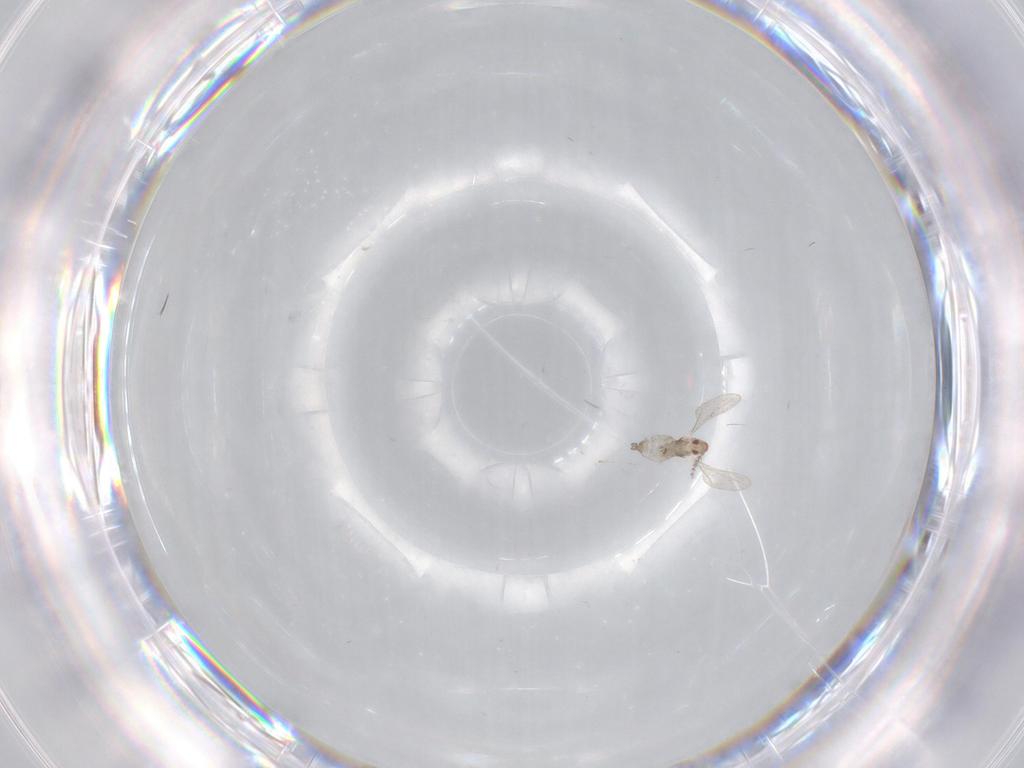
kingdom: Animalia
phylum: Arthropoda
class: Insecta
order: Diptera
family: Cecidomyiidae
